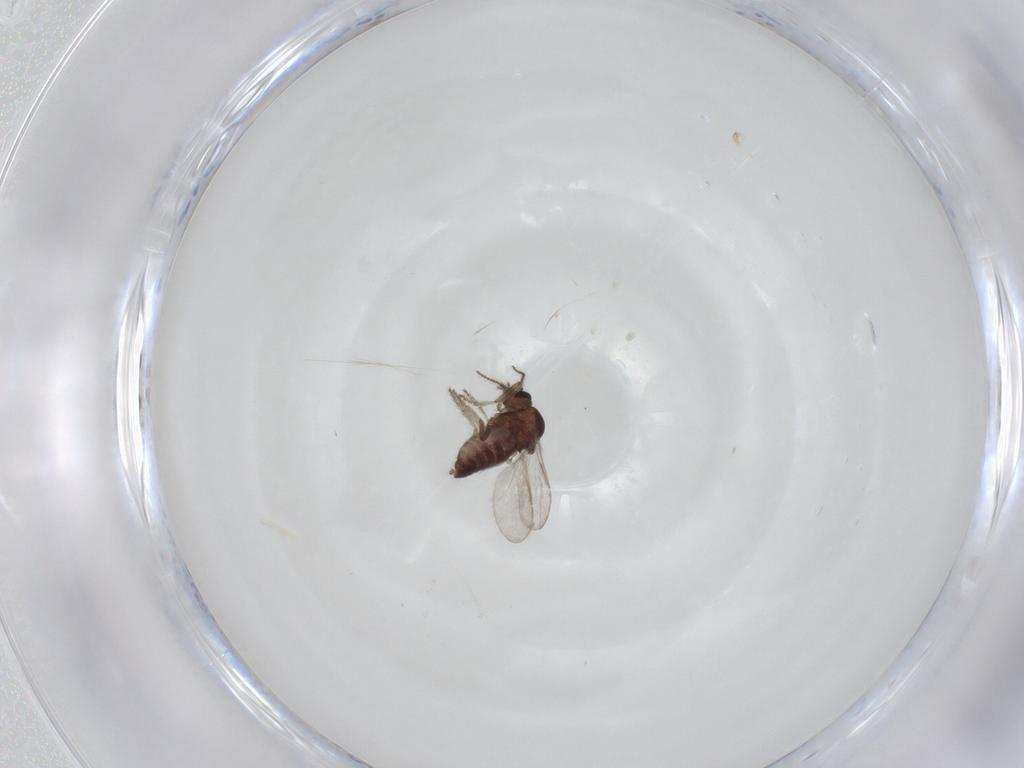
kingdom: Animalia
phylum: Arthropoda
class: Insecta
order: Diptera
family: Ceratopogonidae
